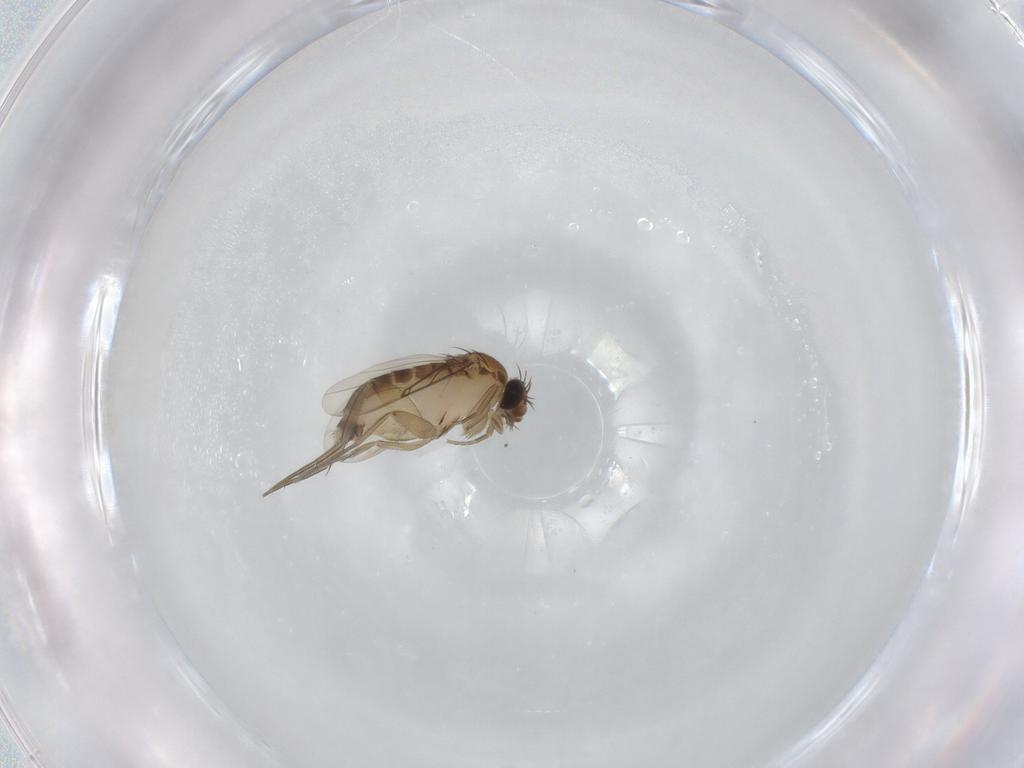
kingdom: Animalia
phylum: Arthropoda
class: Insecta
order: Diptera
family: Phoridae
